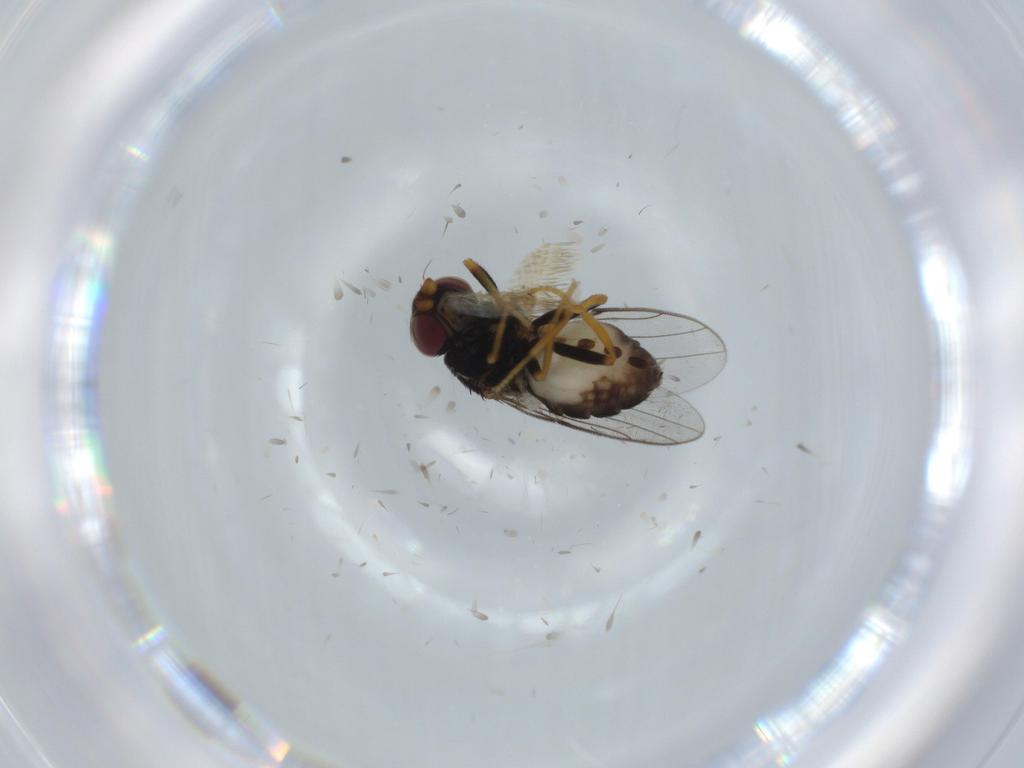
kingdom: Animalia
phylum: Arthropoda
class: Insecta
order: Diptera
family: Chloropidae
